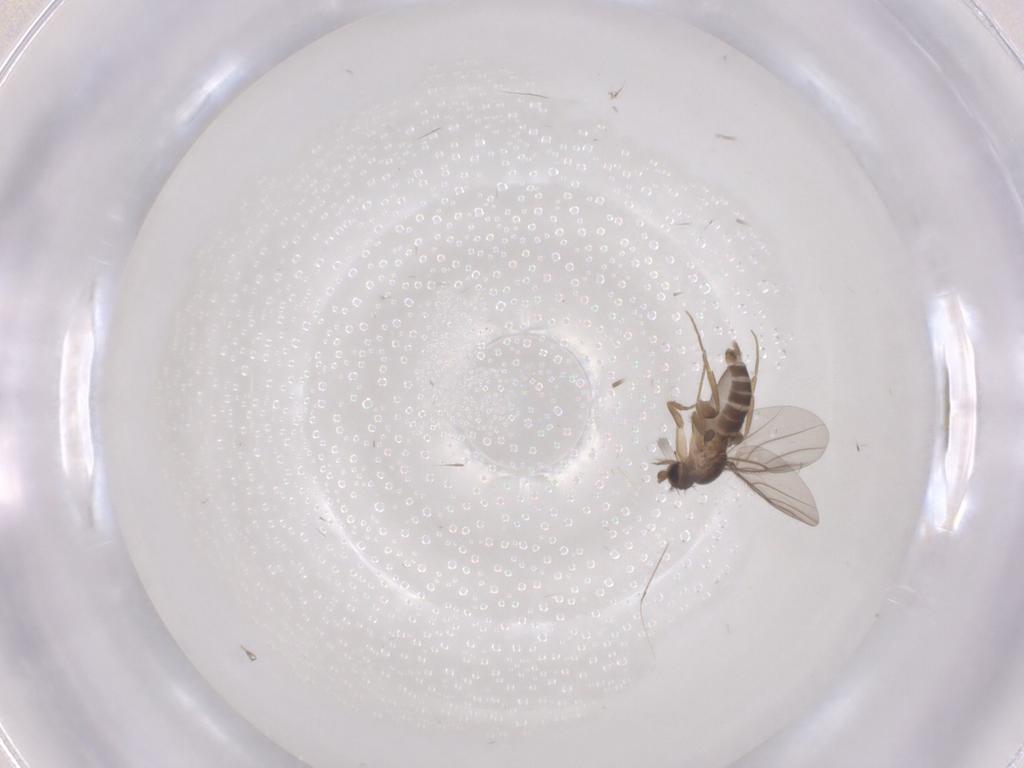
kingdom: Animalia
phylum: Arthropoda
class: Insecta
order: Diptera
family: Phoridae
